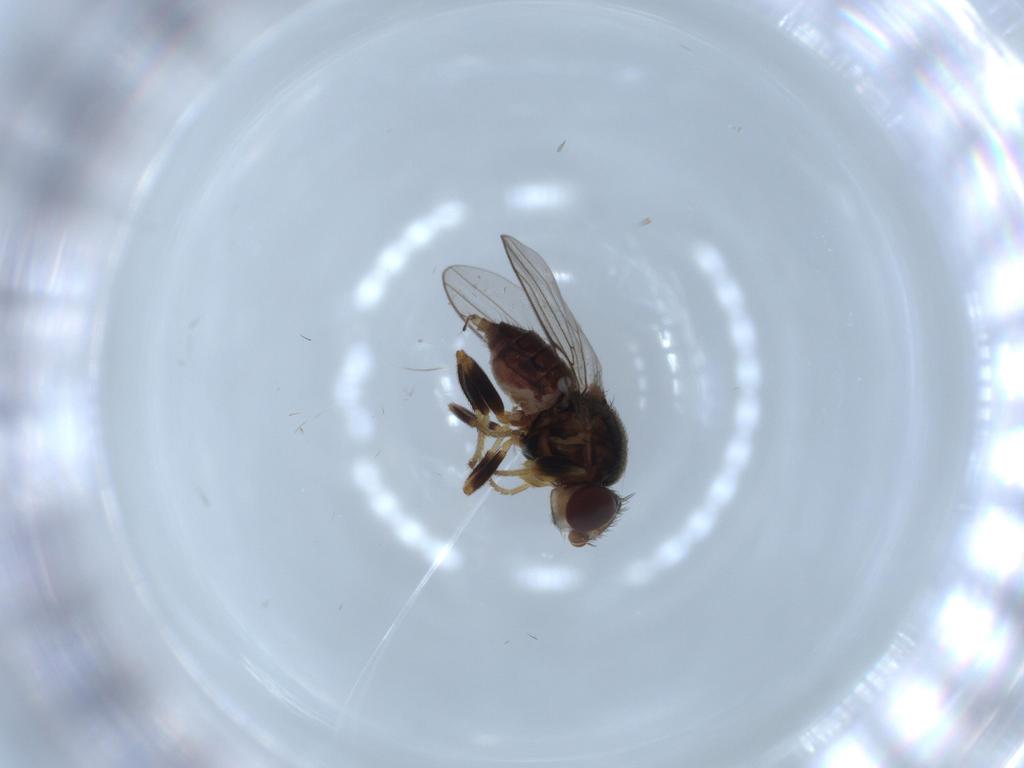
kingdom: Animalia
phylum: Arthropoda
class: Insecta
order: Diptera
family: Chloropidae
